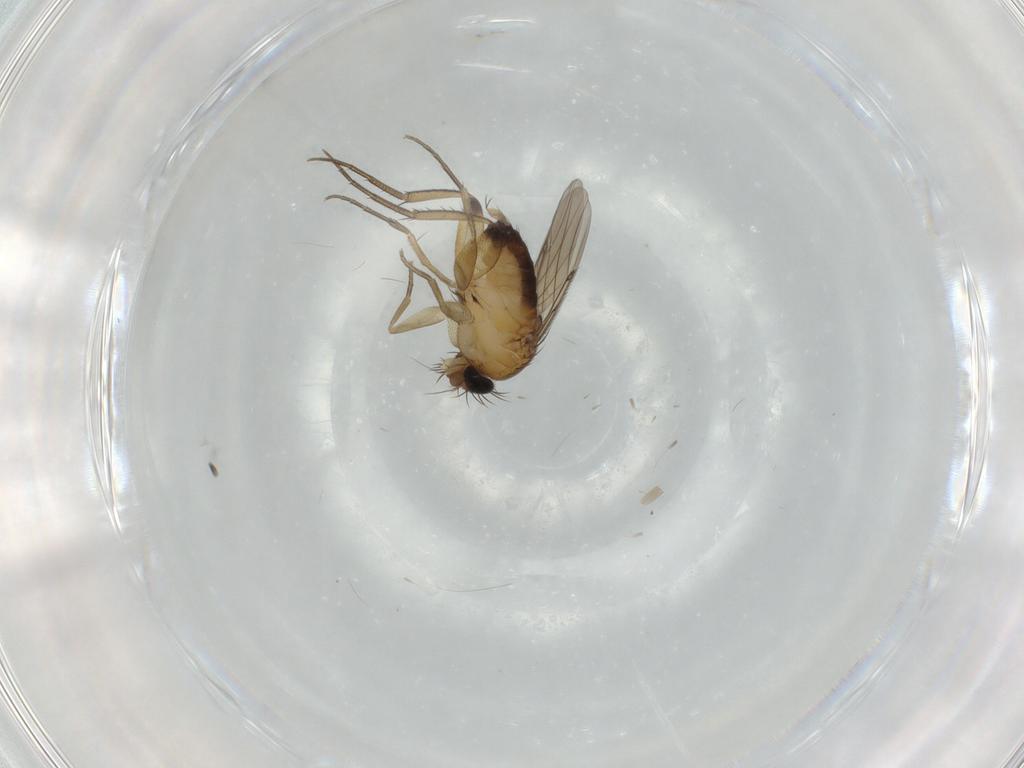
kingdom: Animalia
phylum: Arthropoda
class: Insecta
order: Diptera
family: Phoridae
